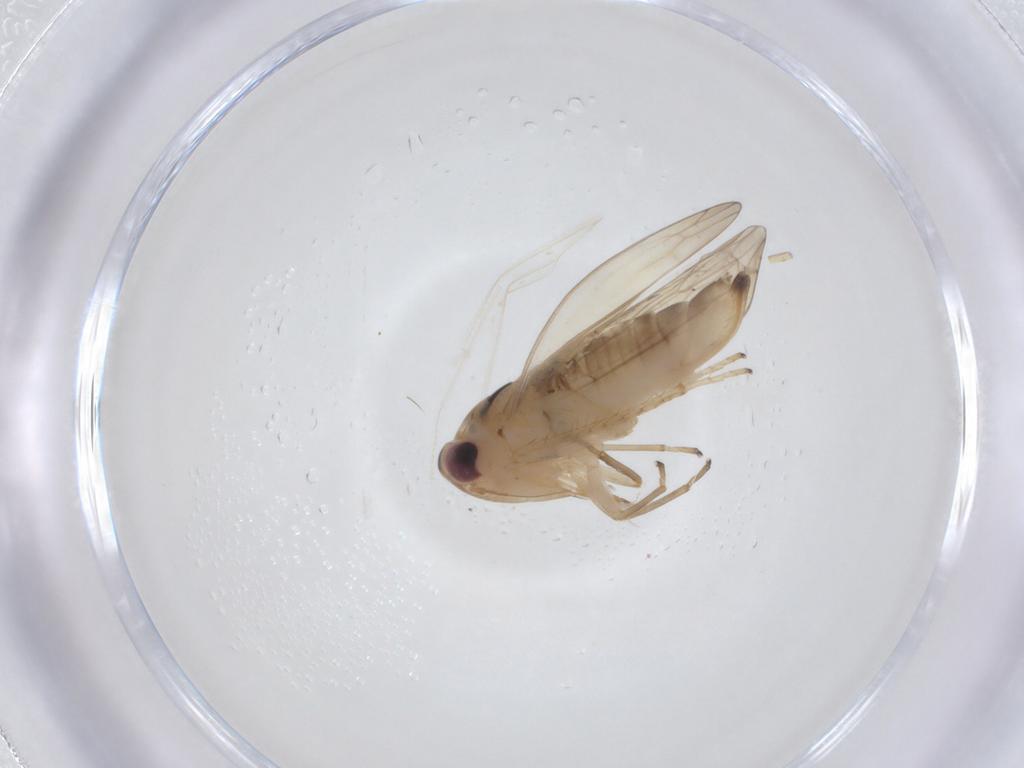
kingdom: Animalia
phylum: Arthropoda
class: Insecta
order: Hemiptera
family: Cicadellidae
